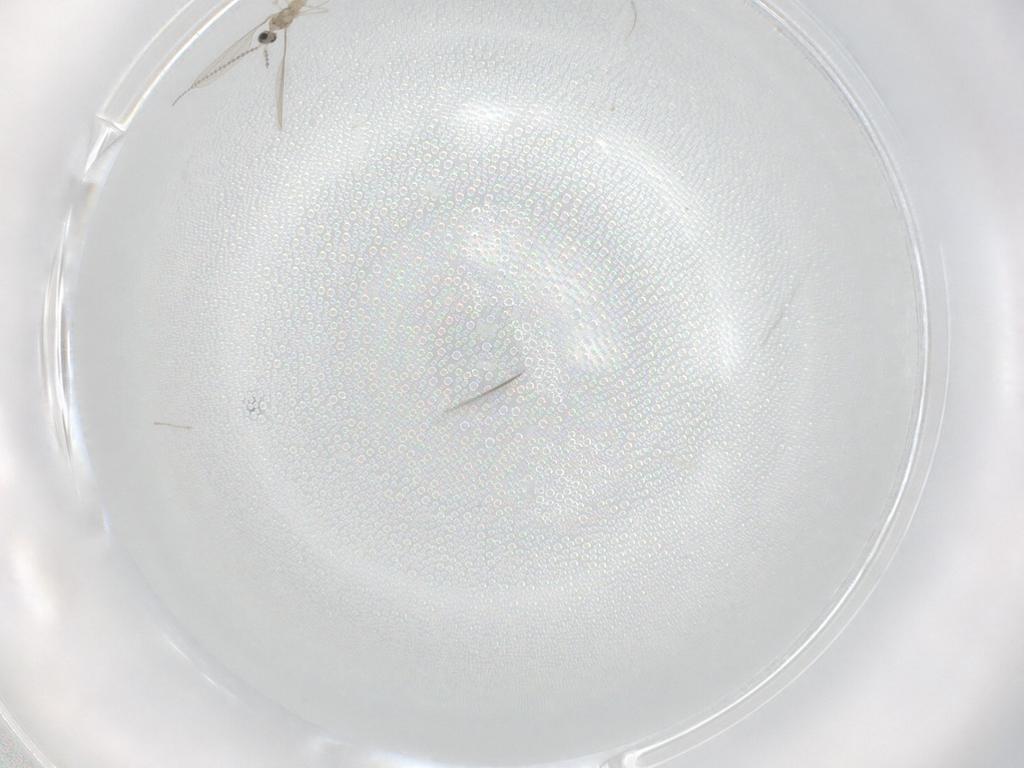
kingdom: Animalia
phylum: Arthropoda
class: Insecta
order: Diptera
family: Cecidomyiidae
